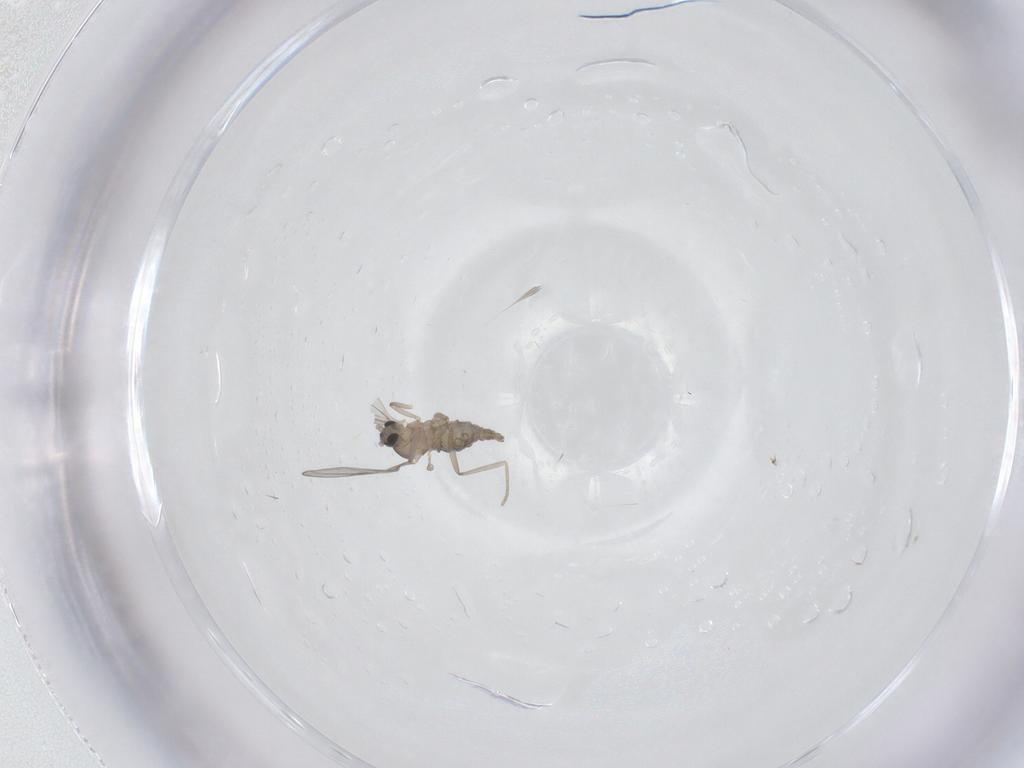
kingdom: Animalia
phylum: Arthropoda
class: Insecta
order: Diptera
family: Cecidomyiidae
